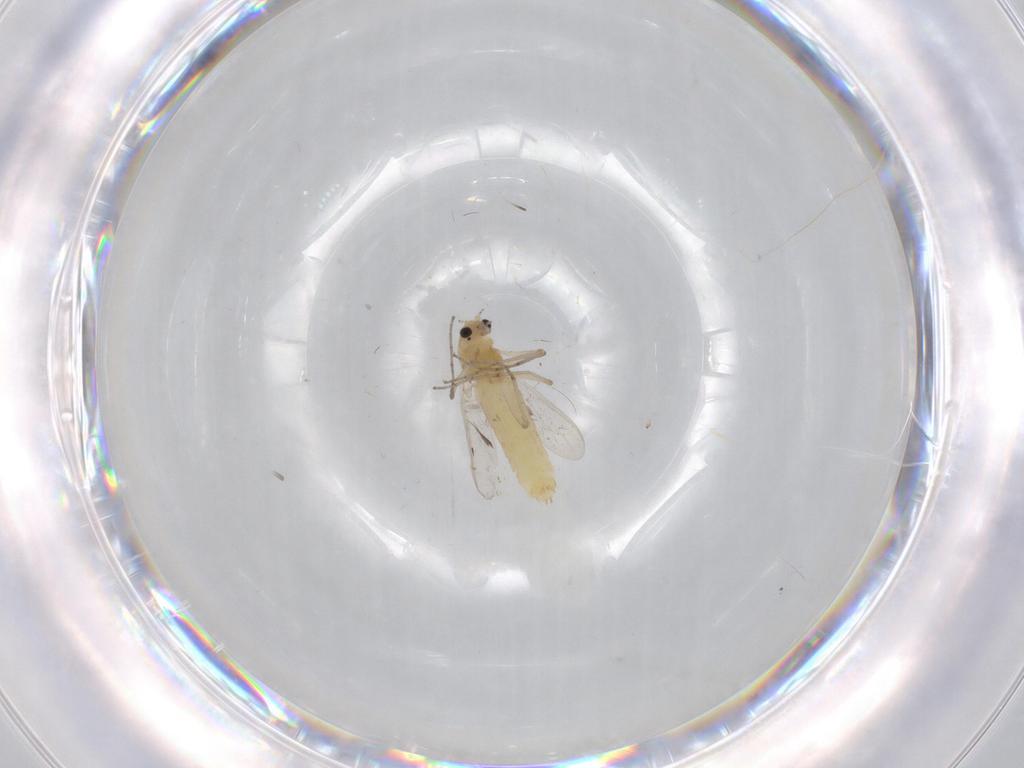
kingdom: Animalia
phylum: Arthropoda
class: Insecta
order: Diptera
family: Chironomidae
